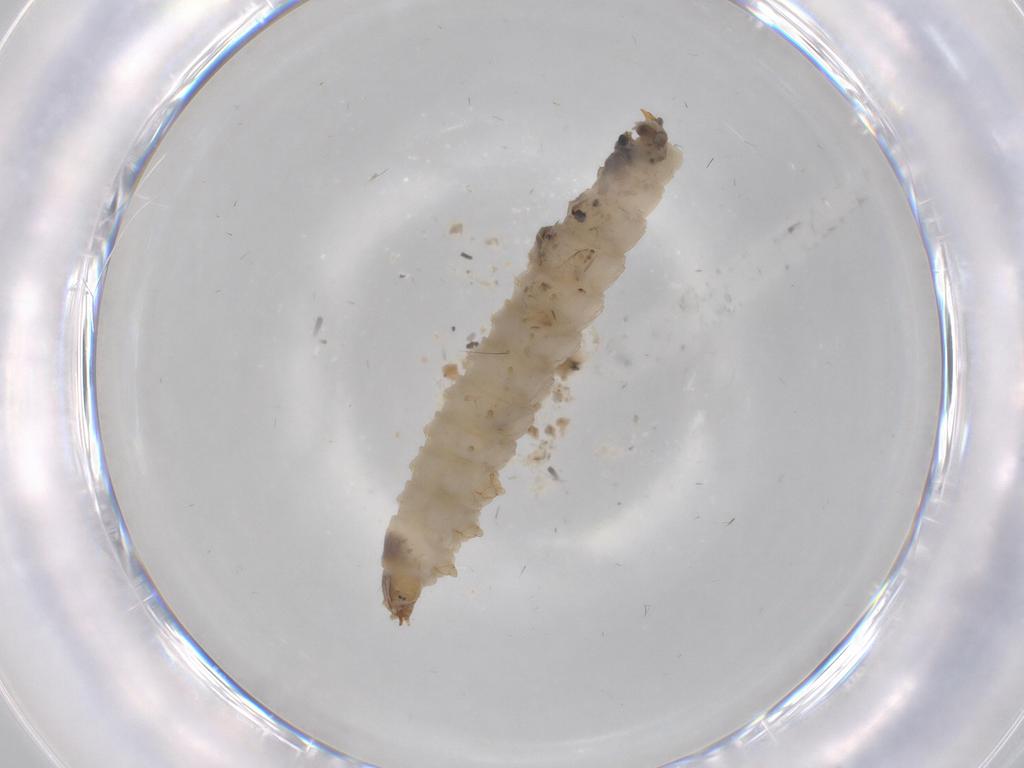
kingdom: Animalia
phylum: Arthropoda
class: Insecta
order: Coleoptera
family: Nitidulidae
